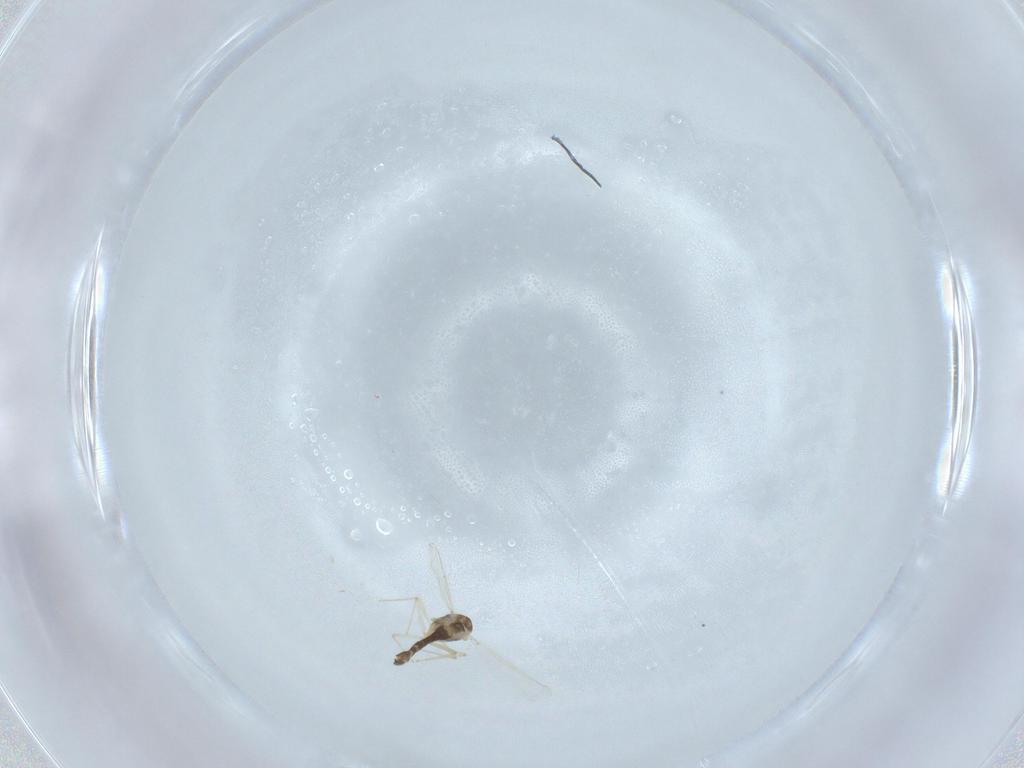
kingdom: Animalia
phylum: Arthropoda
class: Insecta
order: Diptera
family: Chironomidae
